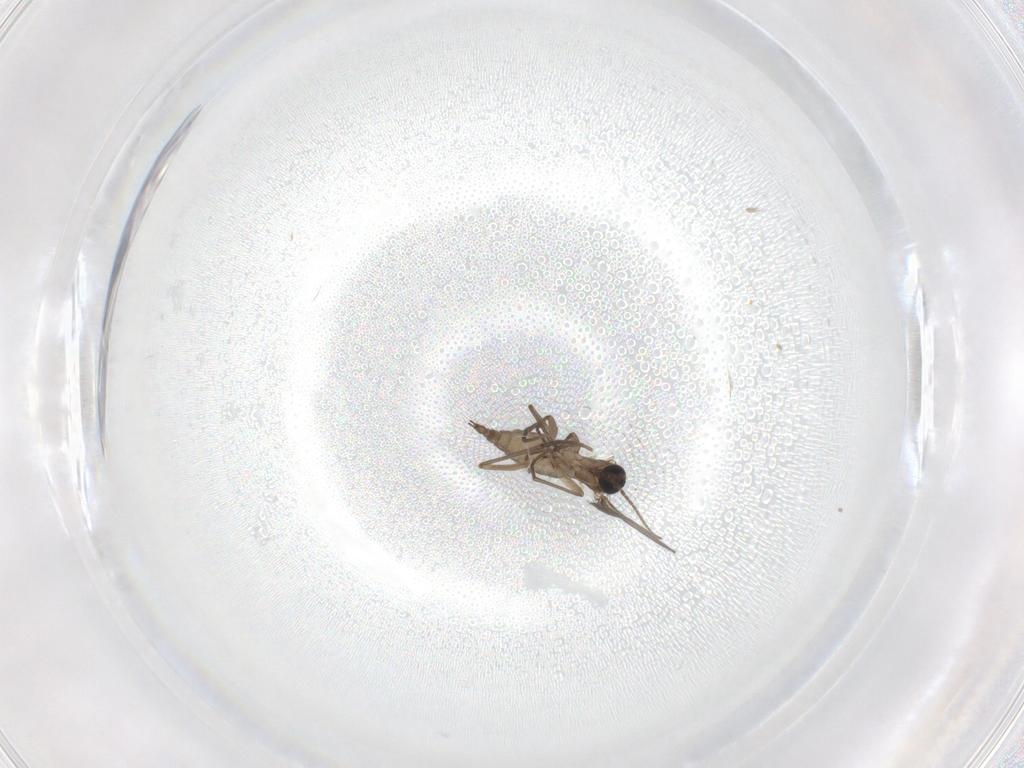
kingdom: Animalia
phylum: Arthropoda
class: Insecta
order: Diptera
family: Sciaridae
